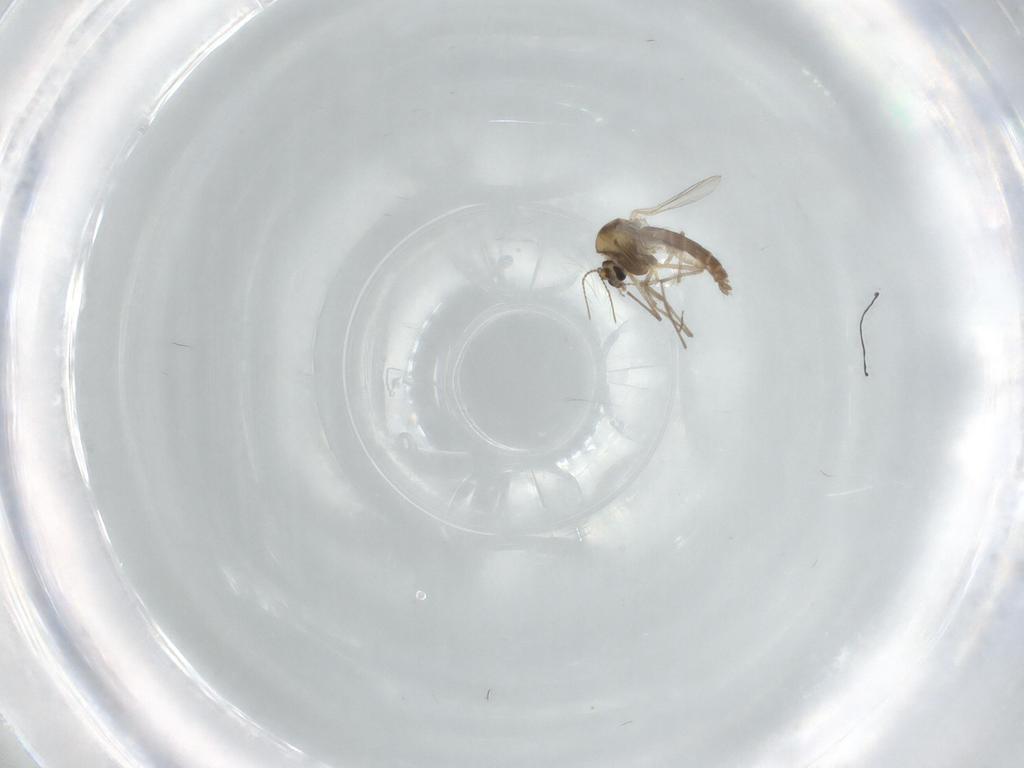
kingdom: Animalia
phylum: Arthropoda
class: Insecta
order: Diptera
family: Chironomidae
